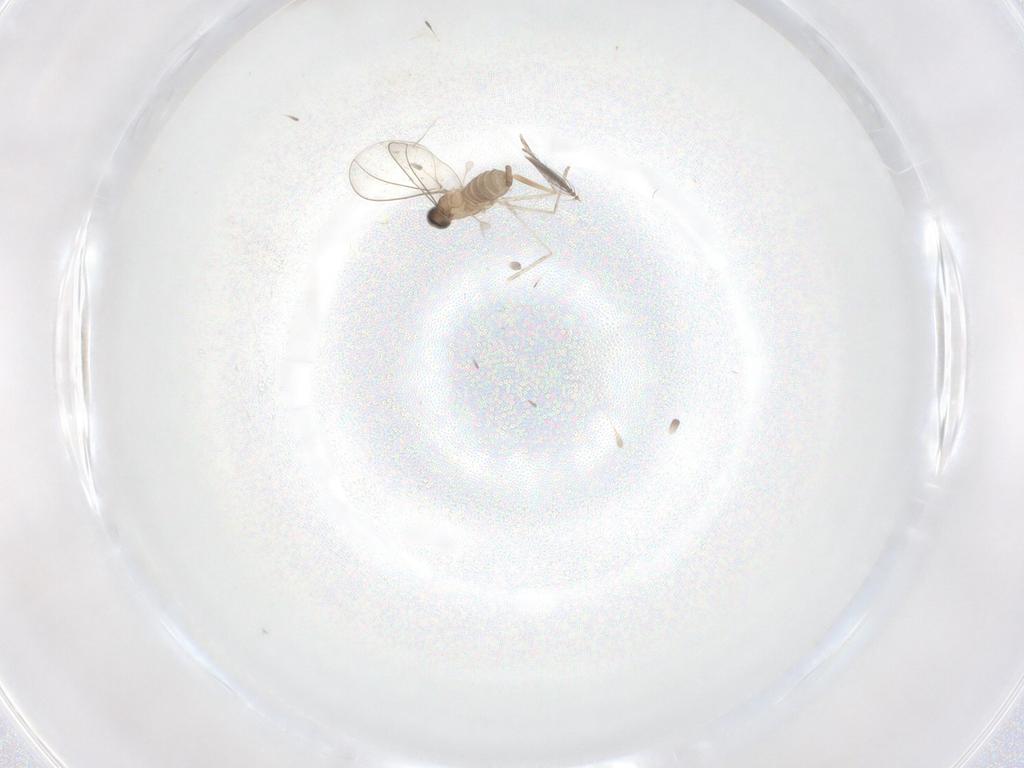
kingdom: Animalia
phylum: Arthropoda
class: Insecta
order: Diptera
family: Cecidomyiidae
